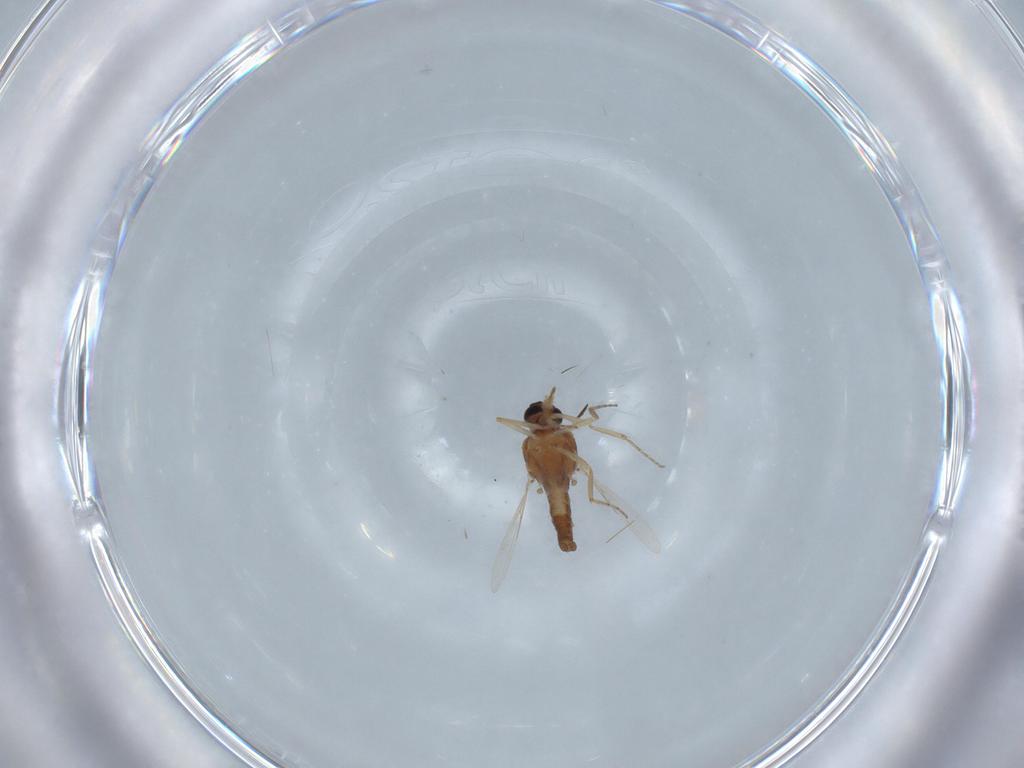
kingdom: Animalia
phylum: Arthropoda
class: Insecta
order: Diptera
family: Ceratopogonidae
